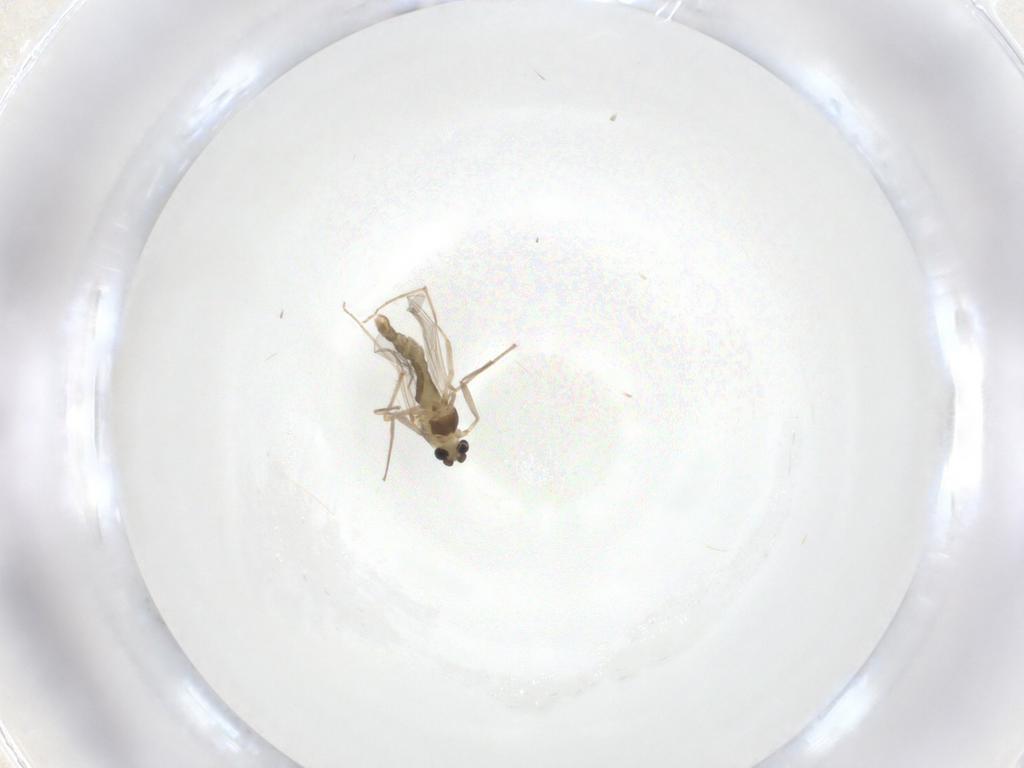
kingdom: Animalia
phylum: Arthropoda
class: Insecta
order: Diptera
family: Chironomidae
